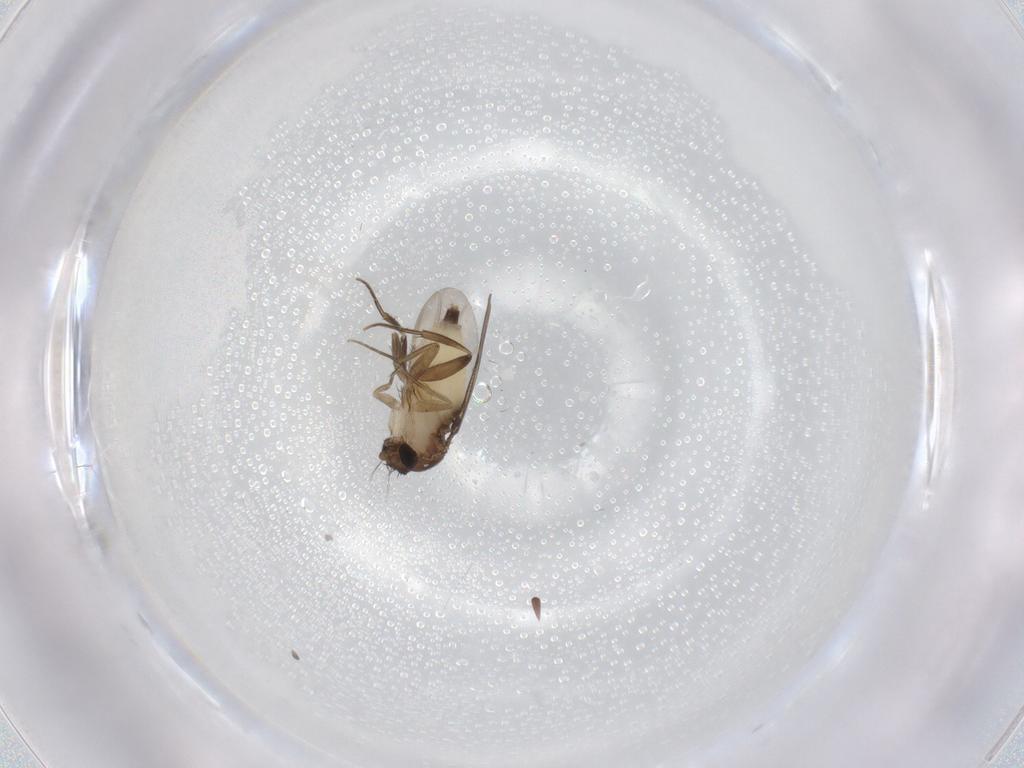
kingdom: Animalia
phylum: Arthropoda
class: Insecta
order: Diptera
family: Phoridae
